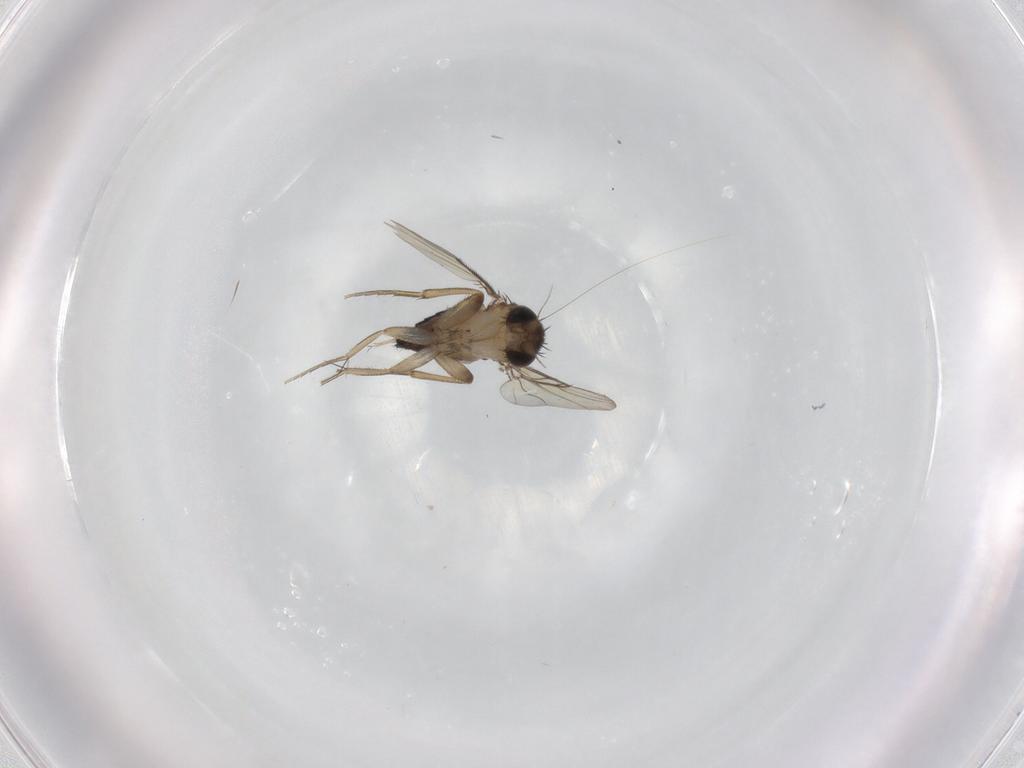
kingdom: Animalia
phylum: Arthropoda
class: Insecta
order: Diptera
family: Phoridae
